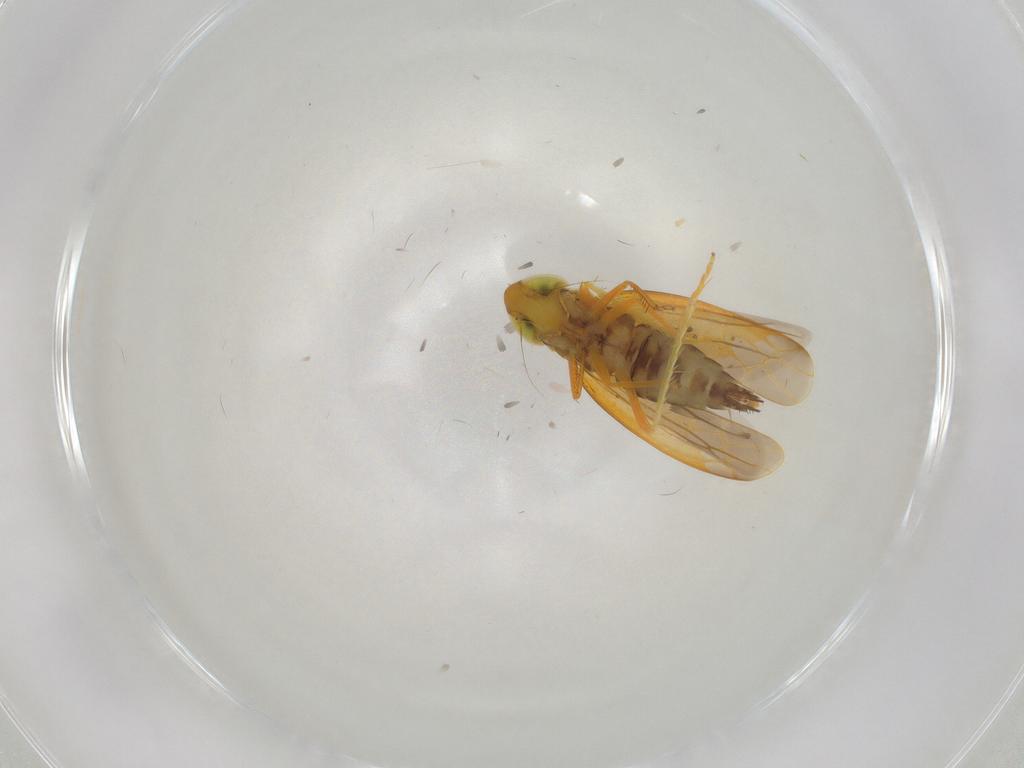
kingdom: Animalia
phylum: Arthropoda
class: Insecta
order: Hemiptera
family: Cicadellidae
